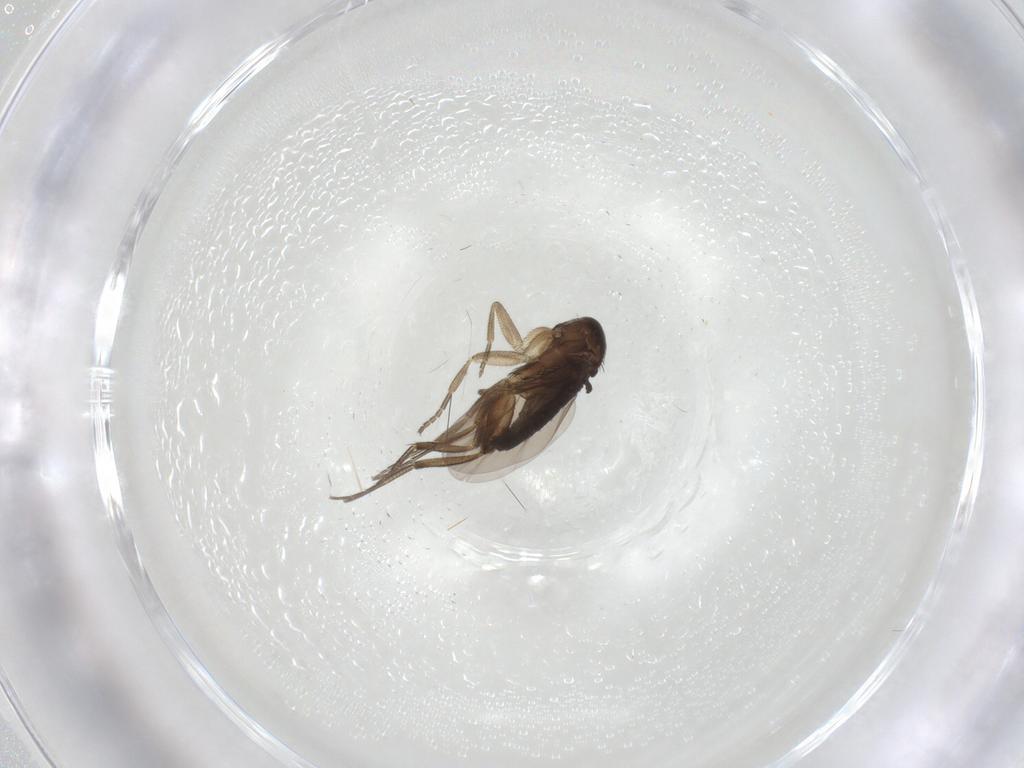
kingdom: Animalia
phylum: Arthropoda
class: Insecta
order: Diptera
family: Phoridae
